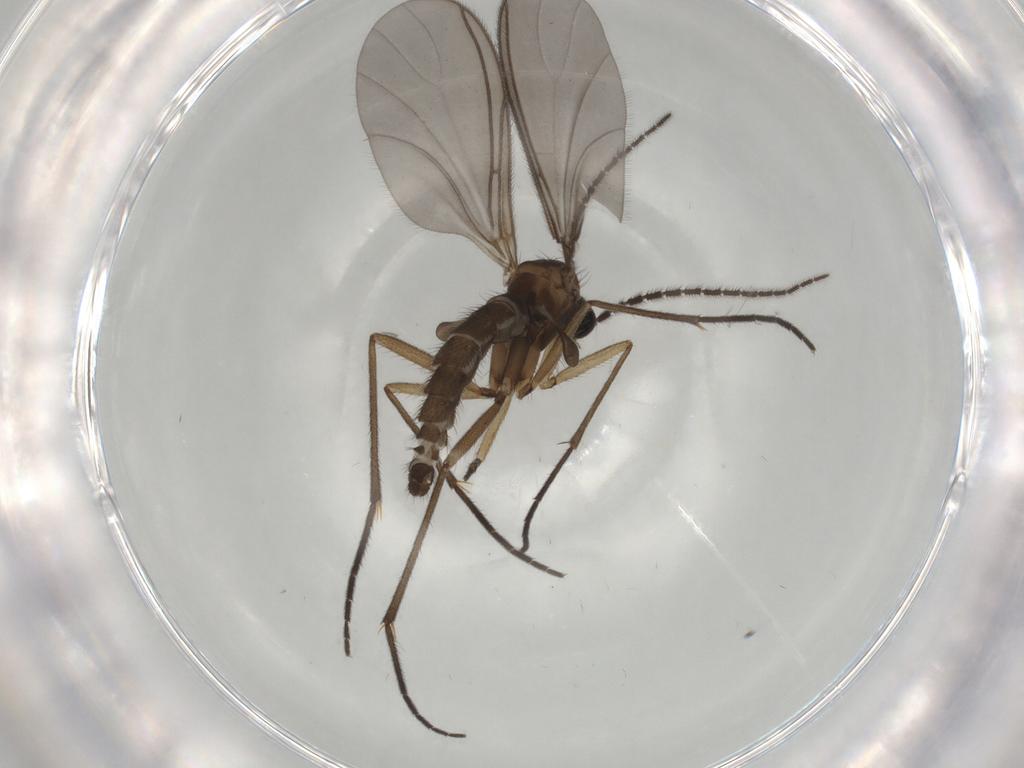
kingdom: Animalia
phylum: Arthropoda
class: Insecta
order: Diptera
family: Sciaridae
